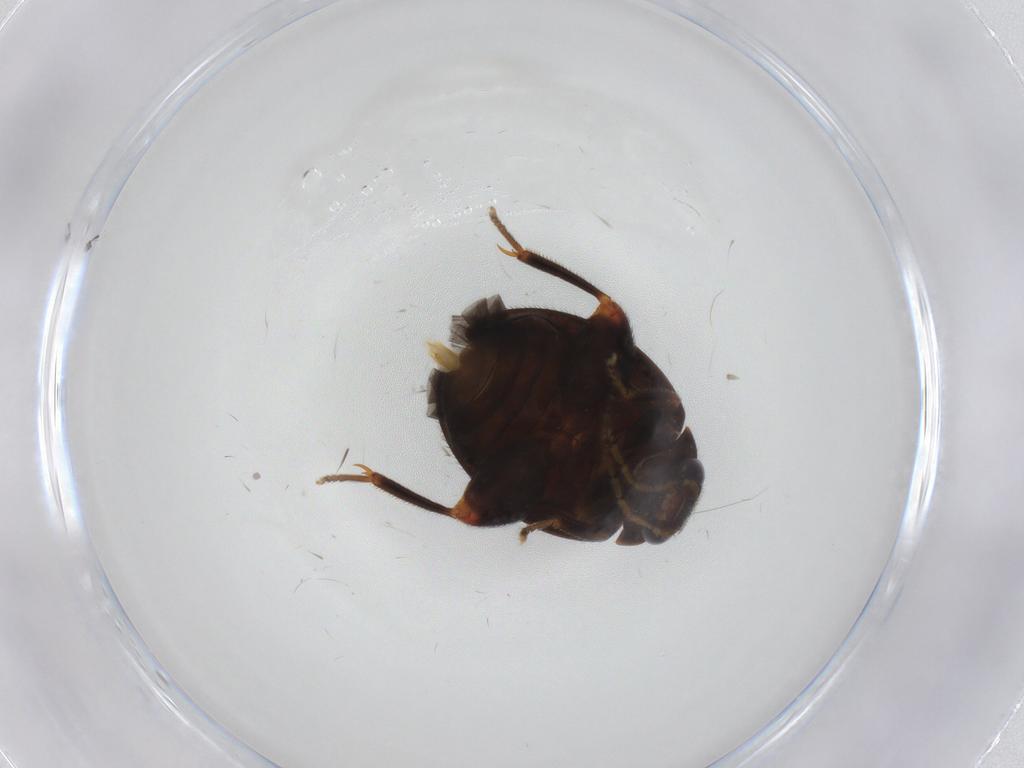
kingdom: Animalia
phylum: Arthropoda
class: Insecta
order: Coleoptera
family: Scirtidae
